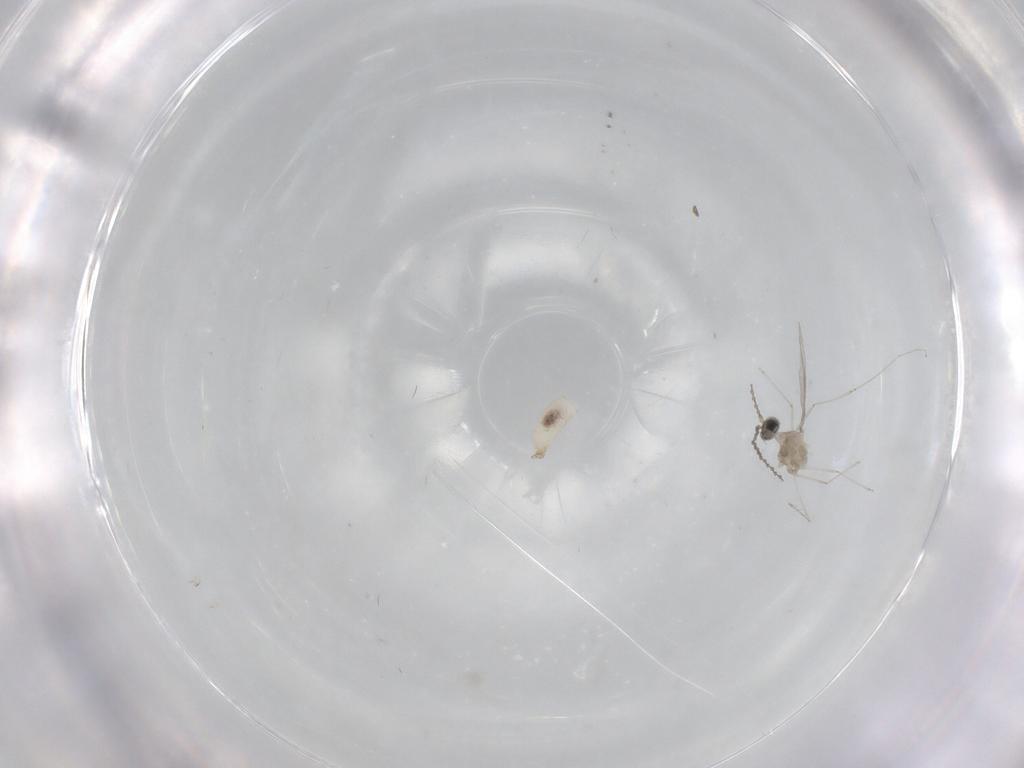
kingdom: Animalia
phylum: Arthropoda
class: Insecta
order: Diptera
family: Cecidomyiidae
